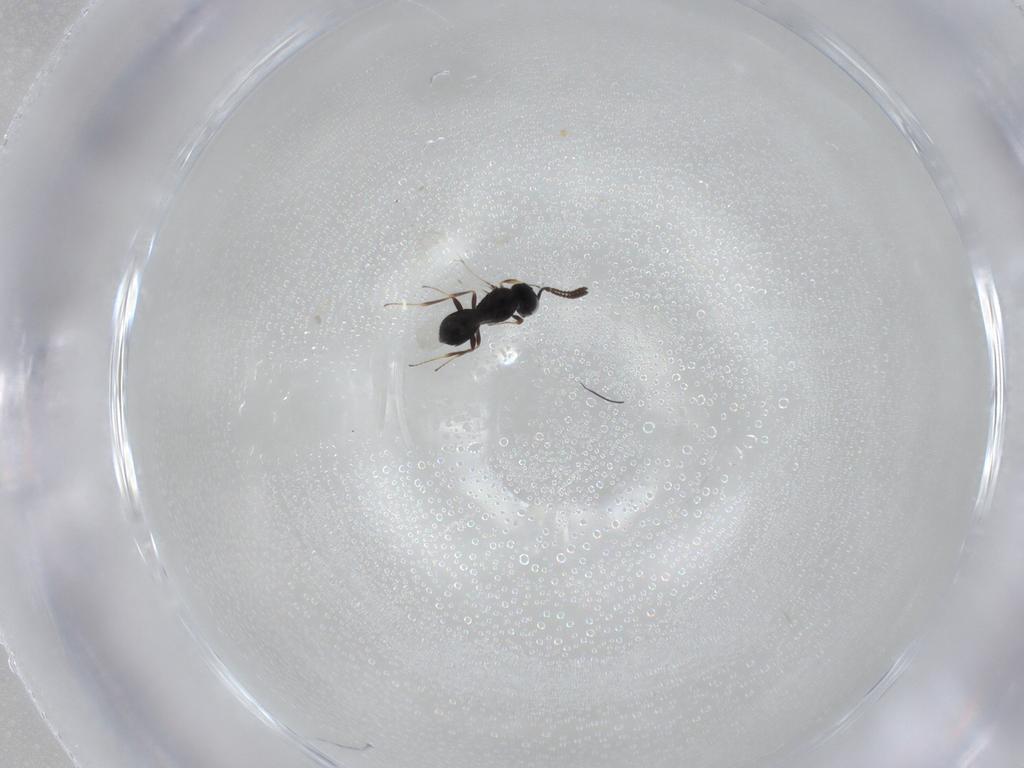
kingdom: Animalia
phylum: Arthropoda
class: Insecta
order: Hymenoptera
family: Scelionidae
